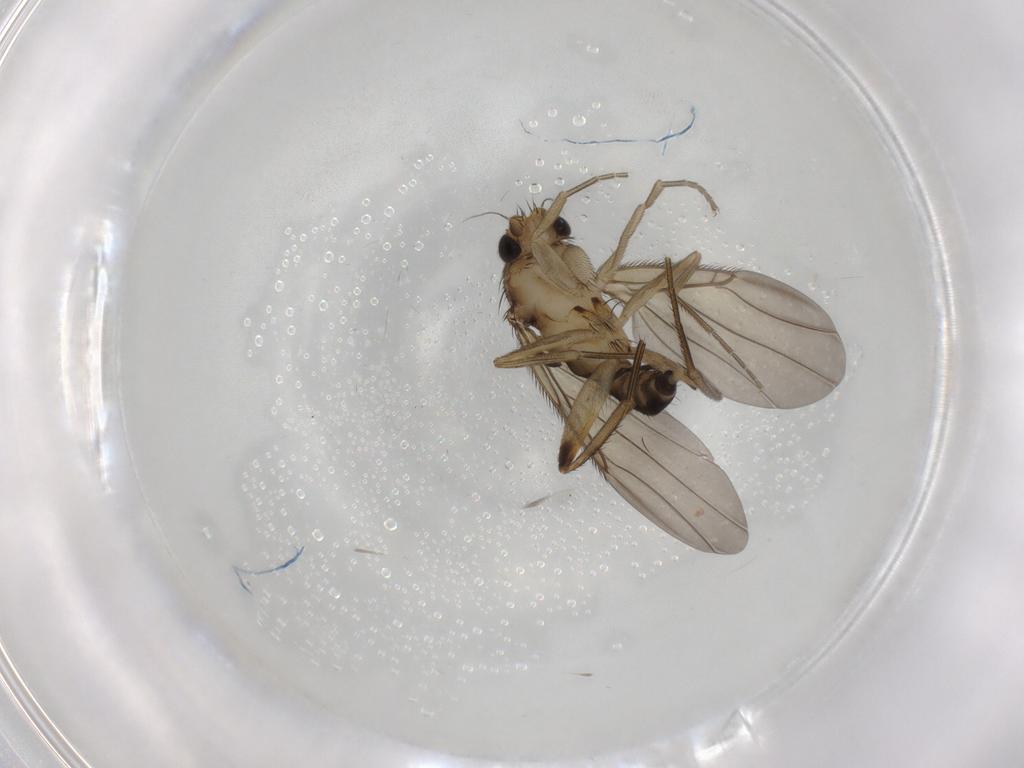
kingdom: Animalia
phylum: Arthropoda
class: Insecta
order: Diptera
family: Phoridae
